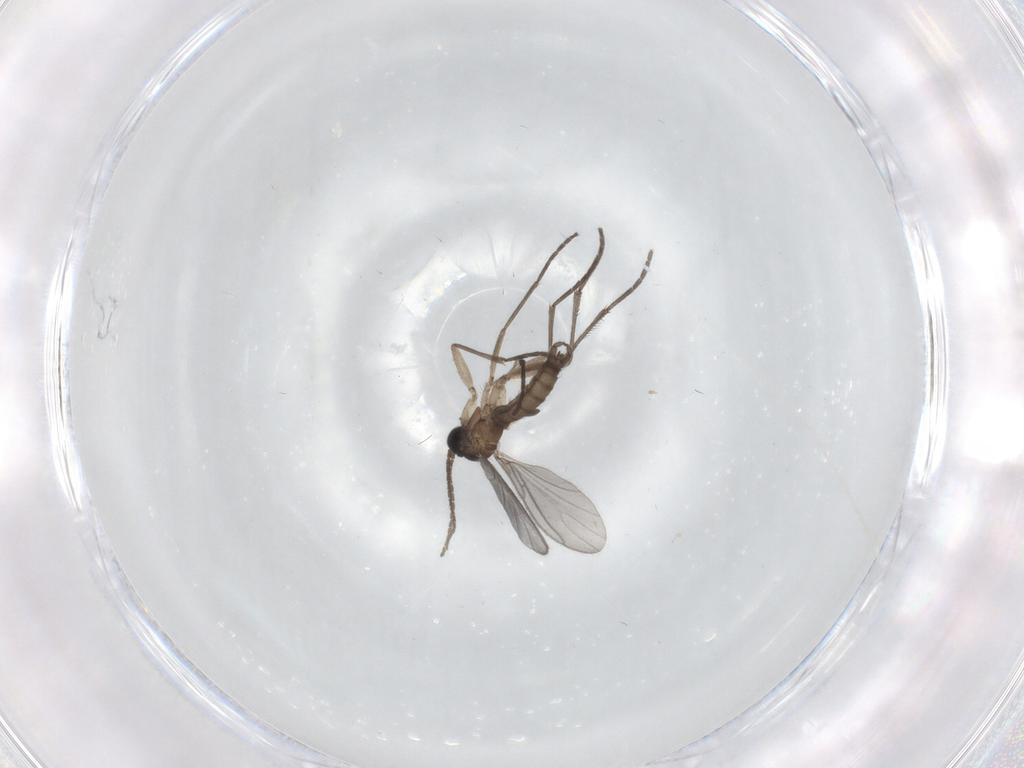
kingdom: Animalia
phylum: Arthropoda
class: Insecta
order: Diptera
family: Sciaridae
